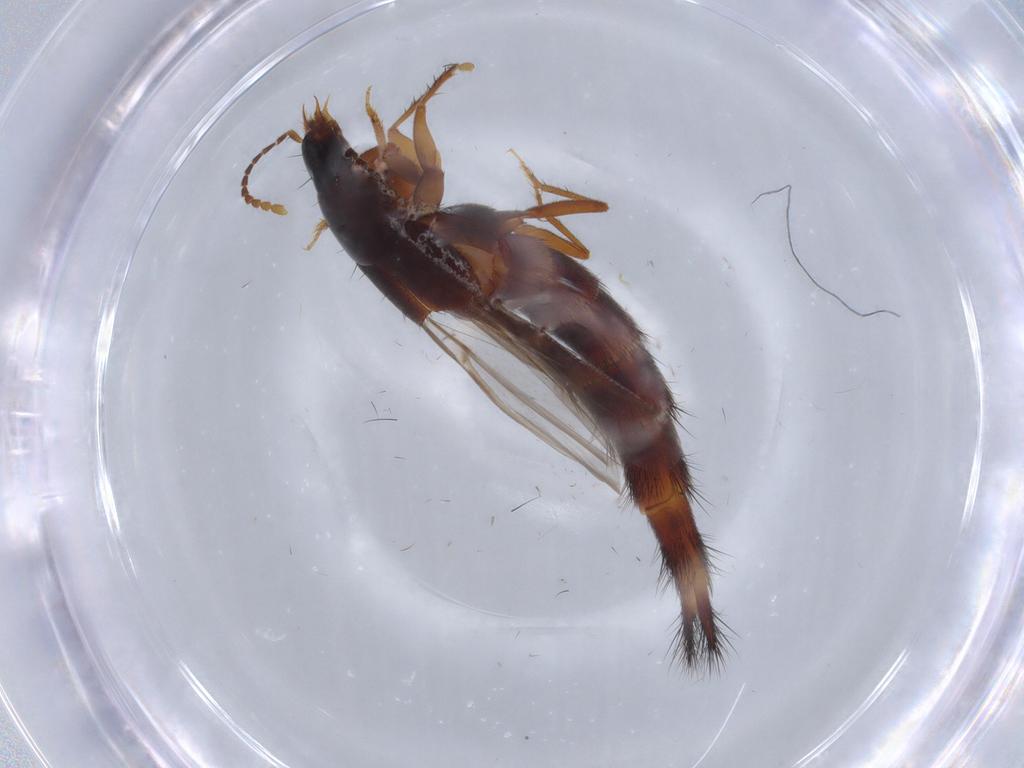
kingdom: Animalia
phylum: Arthropoda
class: Insecta
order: Coleoptera
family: Staphylinidae
